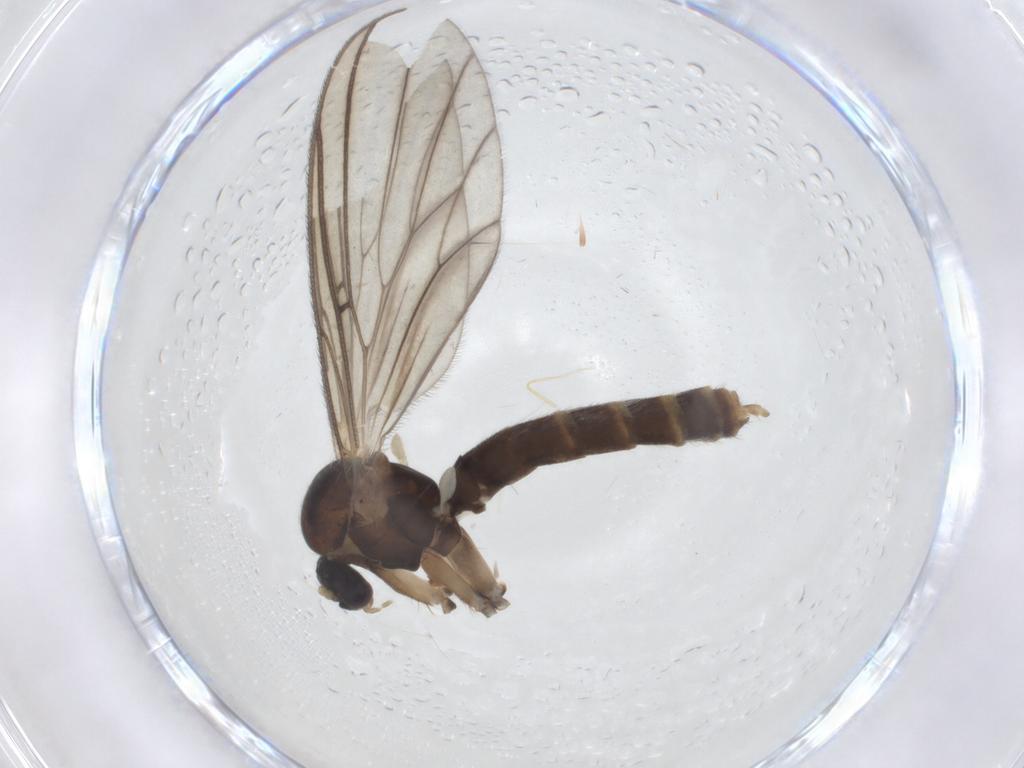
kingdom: Animalia
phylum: Arthropoda
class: Insecta
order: Diptera
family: Mycetophilidae
